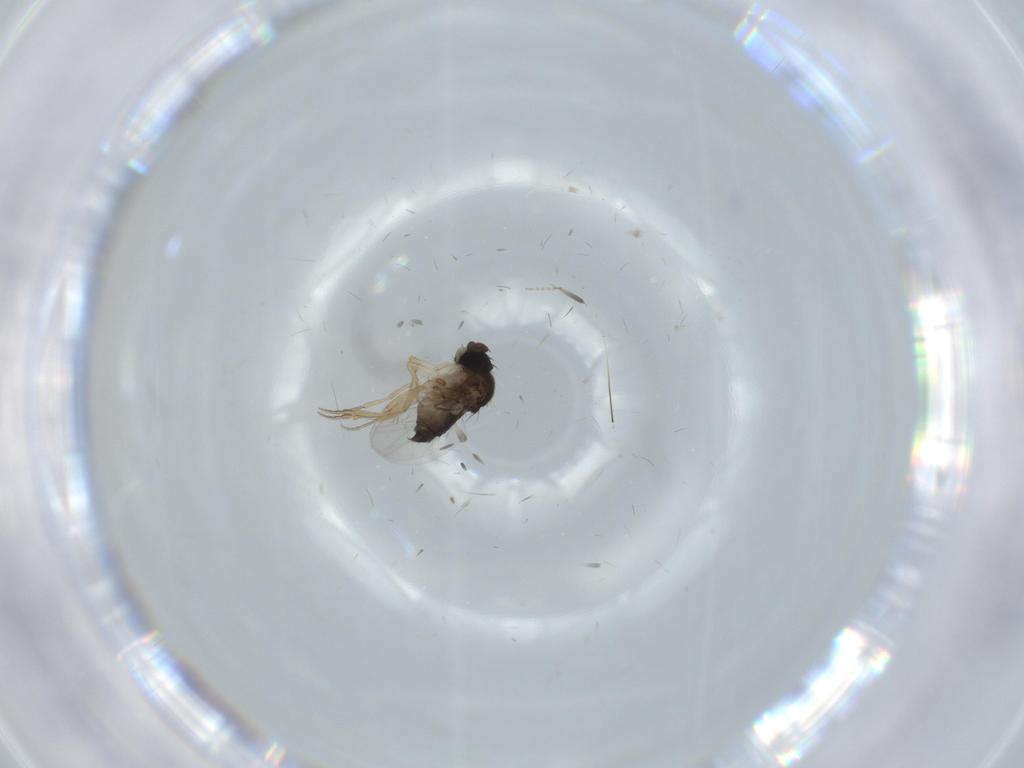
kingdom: Animalia
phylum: Arthropoda
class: Insecta
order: Diptera
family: Phoridae
